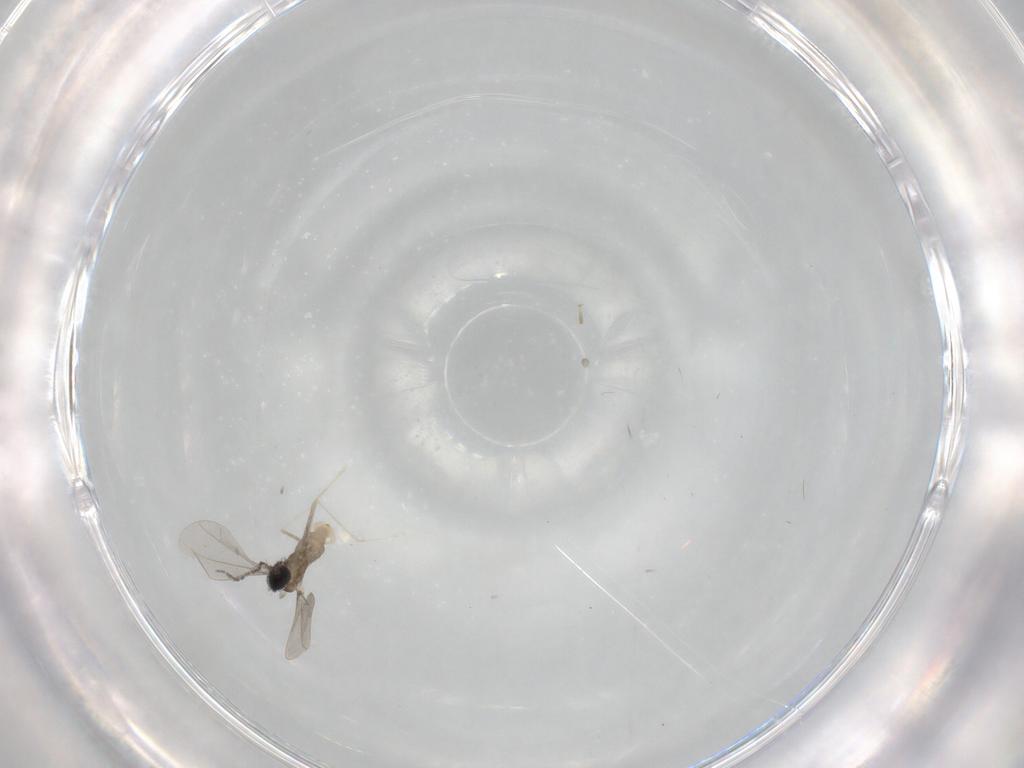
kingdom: Animalia
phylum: Arthropoda
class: Insecta
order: Diptera
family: Cecidomyiidae
